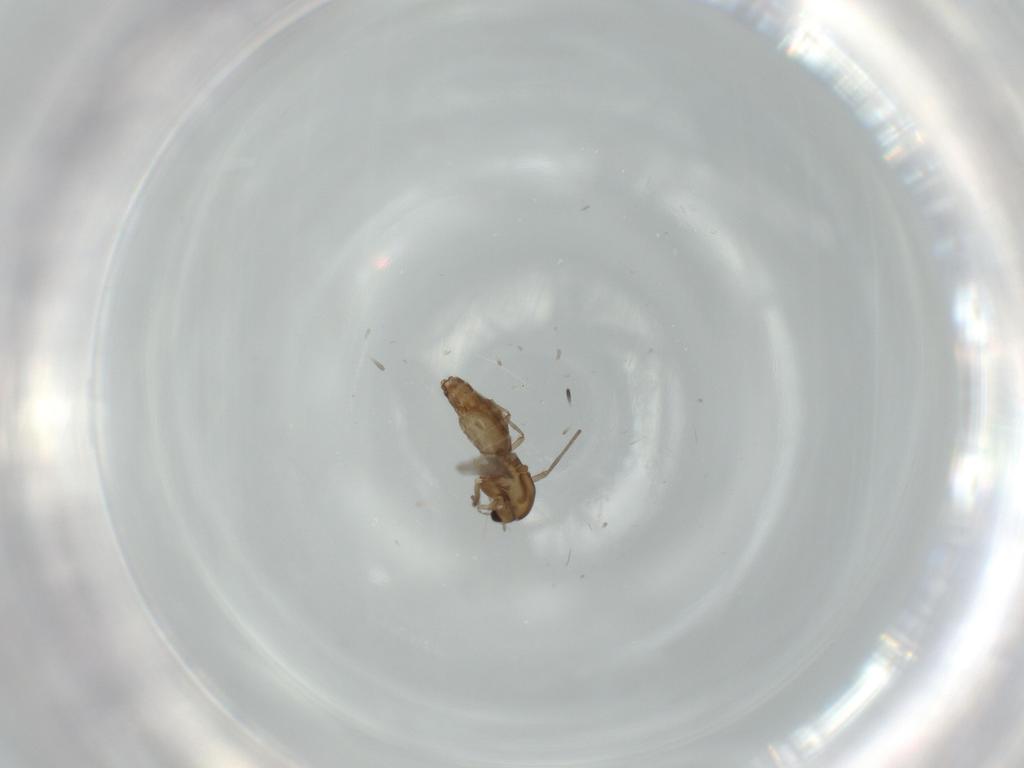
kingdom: Animalia
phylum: Arthropoda
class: Insecta
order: Diptera
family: Chironomidae
